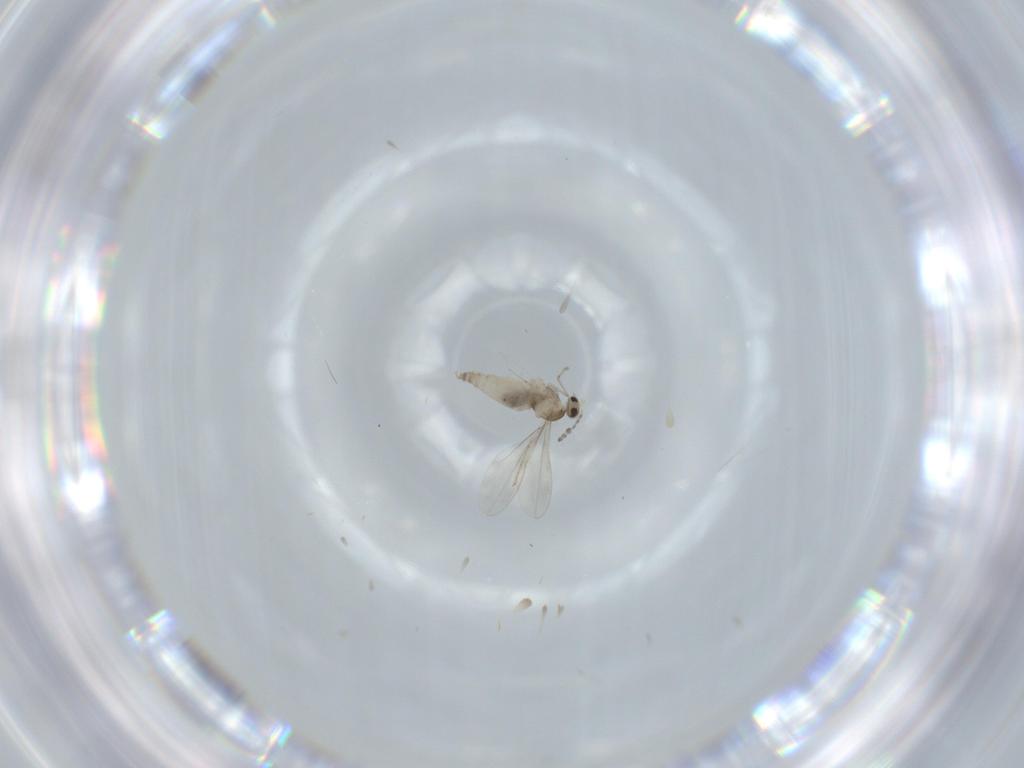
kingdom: Animalia
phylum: Arthropoda
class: Insecta
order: Diptera
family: Cecidomyiidae
